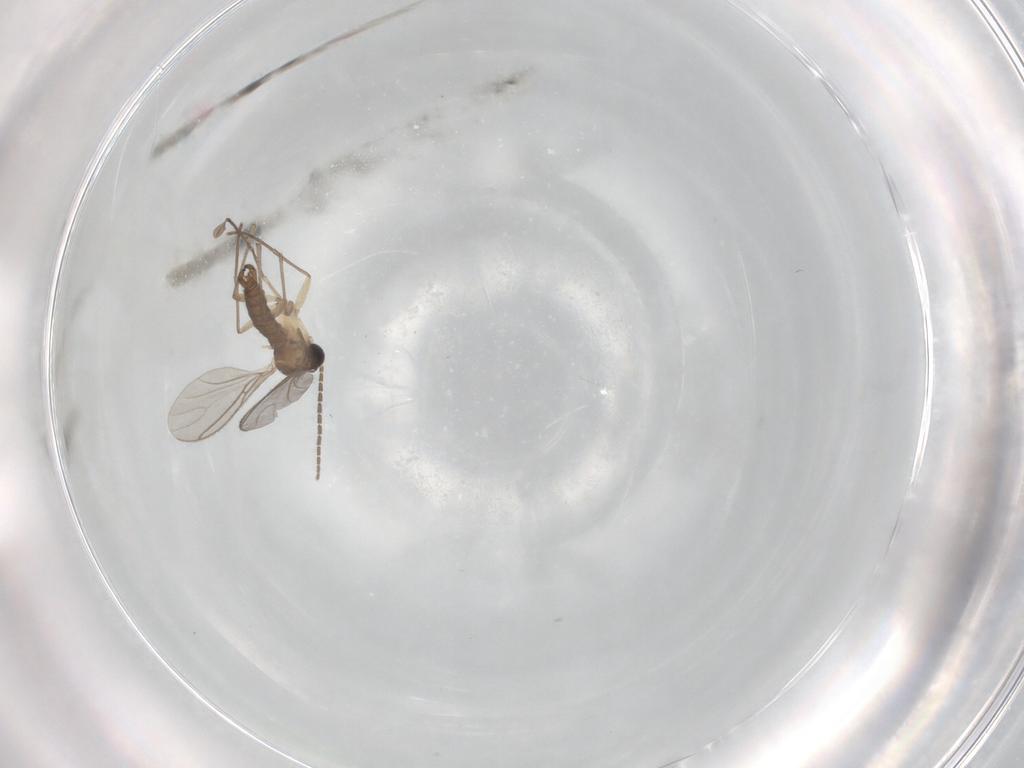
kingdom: Animalia
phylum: Arthropoda
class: Insecta
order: Diptera
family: Sciaridae
